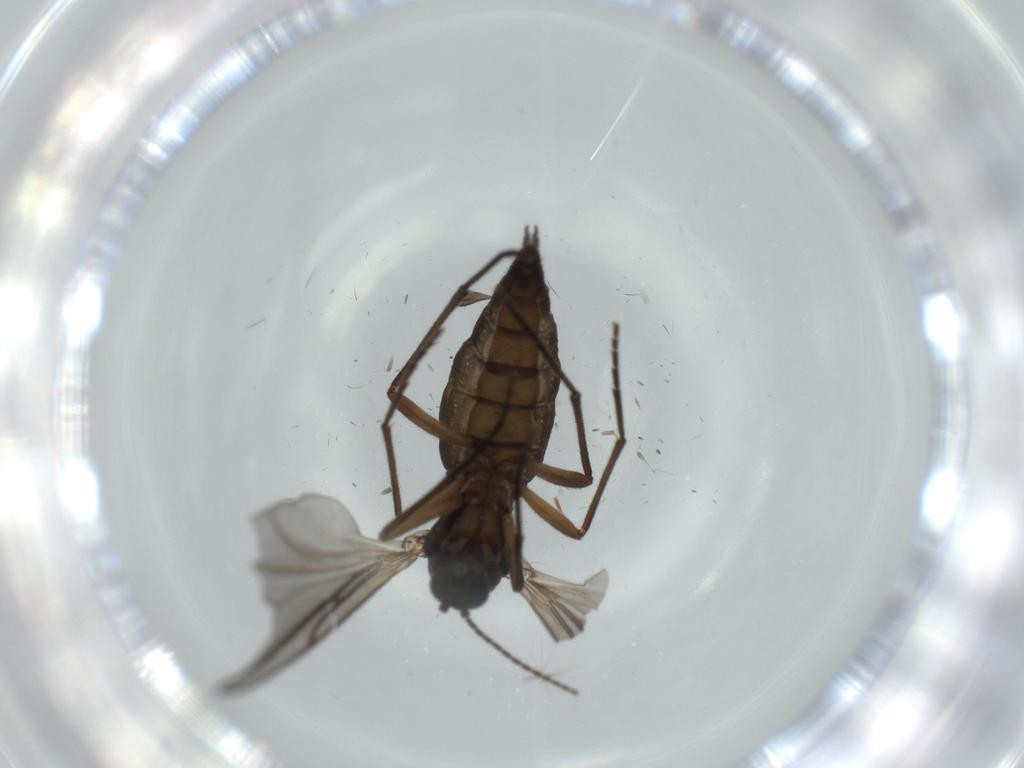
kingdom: Animalia
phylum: Arthropoda
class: Insecta
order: Diptera
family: Sciaridae
